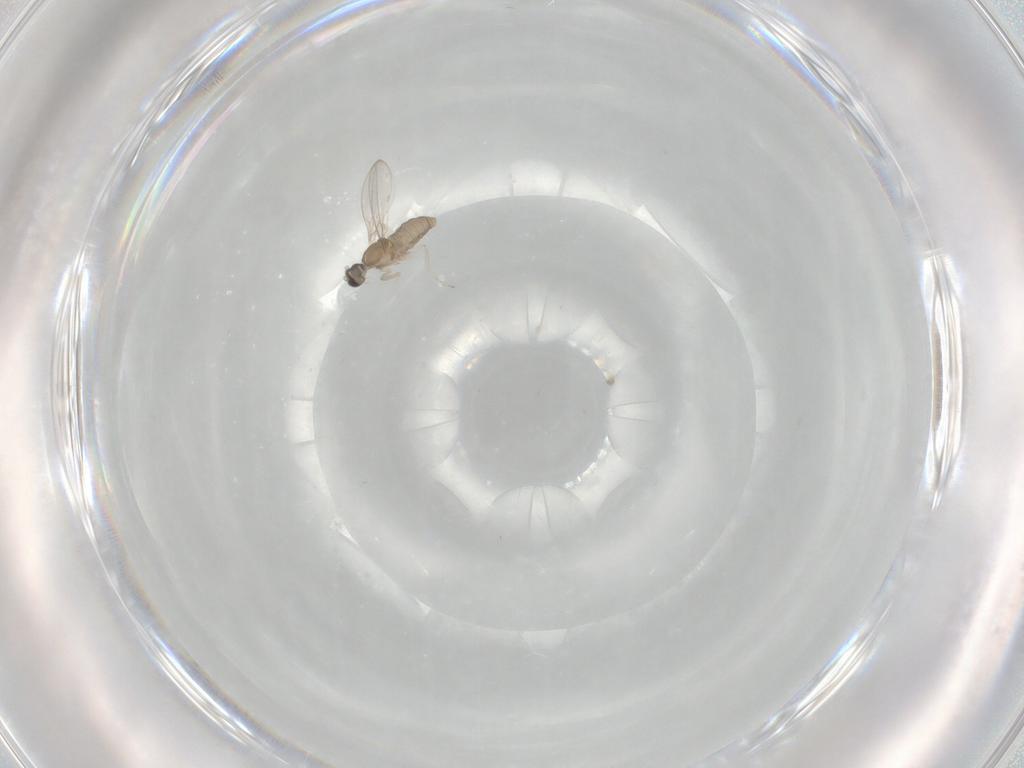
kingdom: Animalia
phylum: Arthropoda
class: Insecta
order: Diptera
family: Cecidomyiidae
